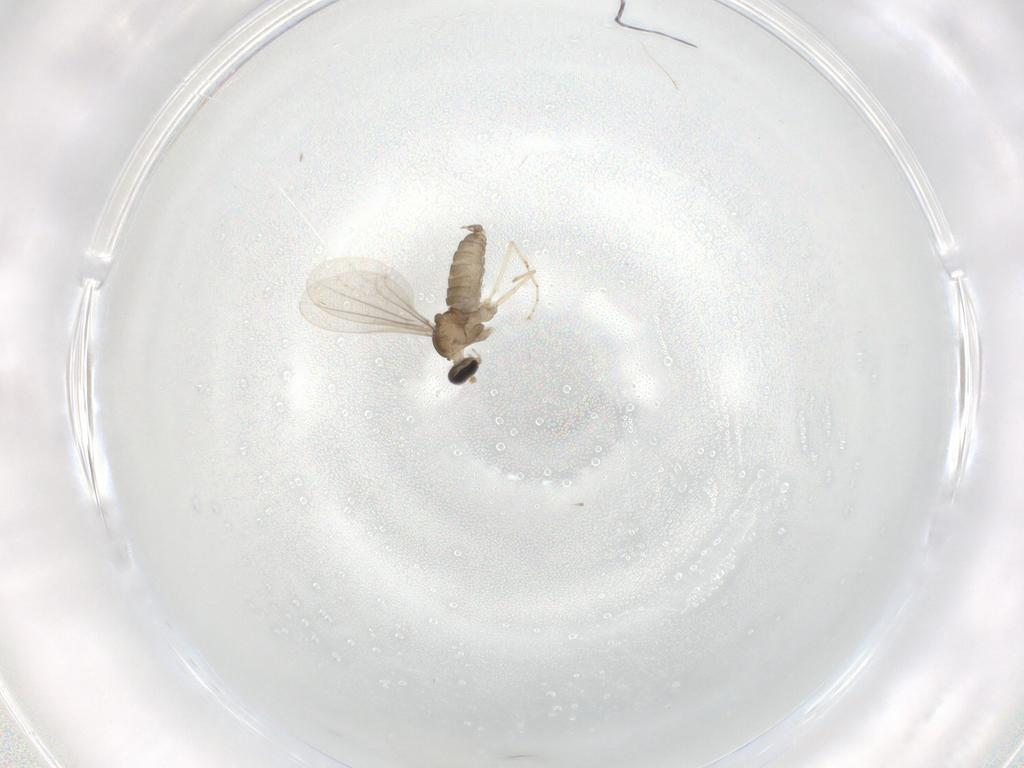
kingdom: Animalia
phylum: Arthropoda
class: Insecta
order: Diptera
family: Cecidomyiidae
